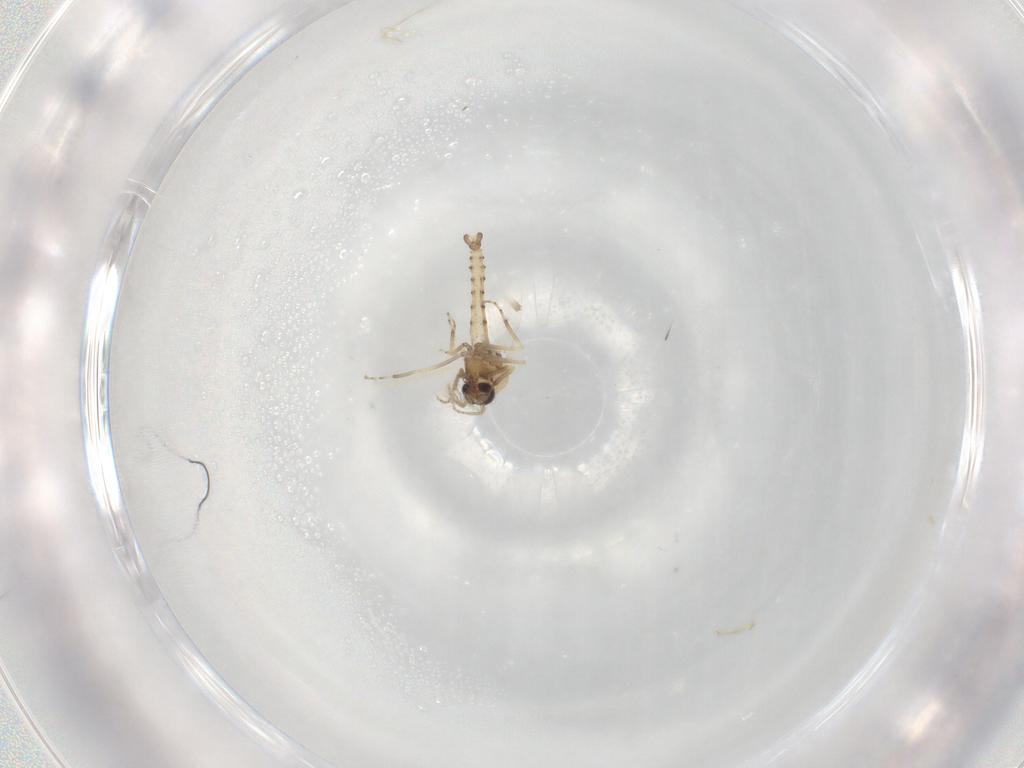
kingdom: Animalia
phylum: Arthropoda
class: Insecta
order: Diptera
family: Ceratopogonidae
